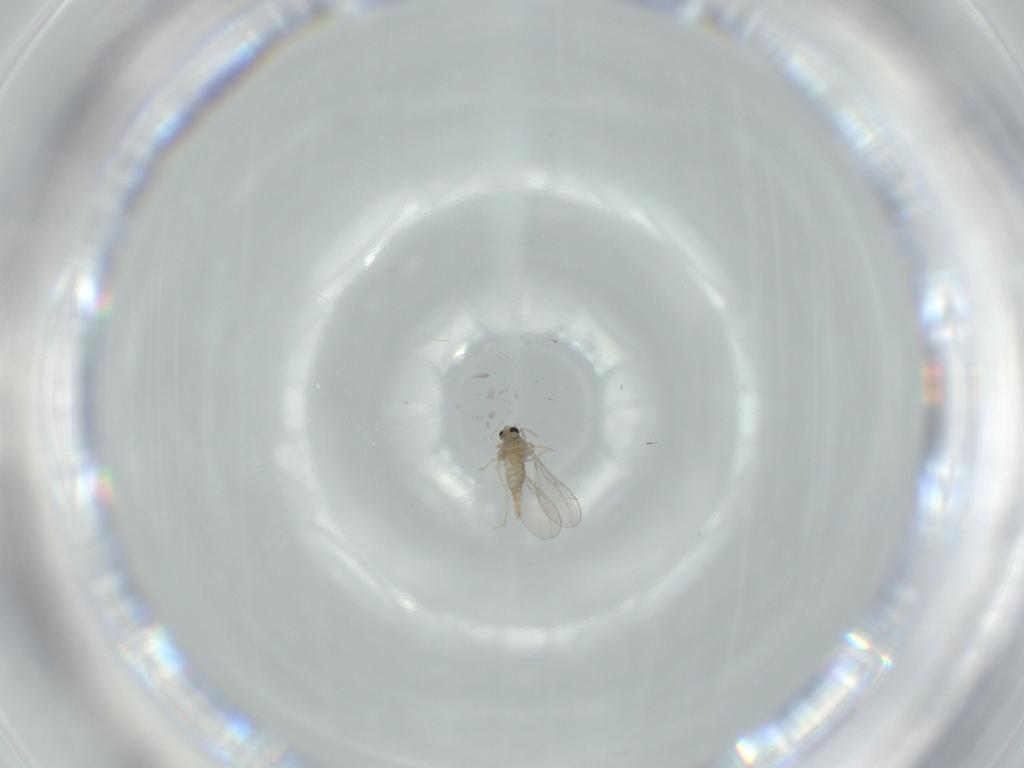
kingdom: Animalia
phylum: Arthropoda
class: Insecta
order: Diptera
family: Cecidomyiidae
